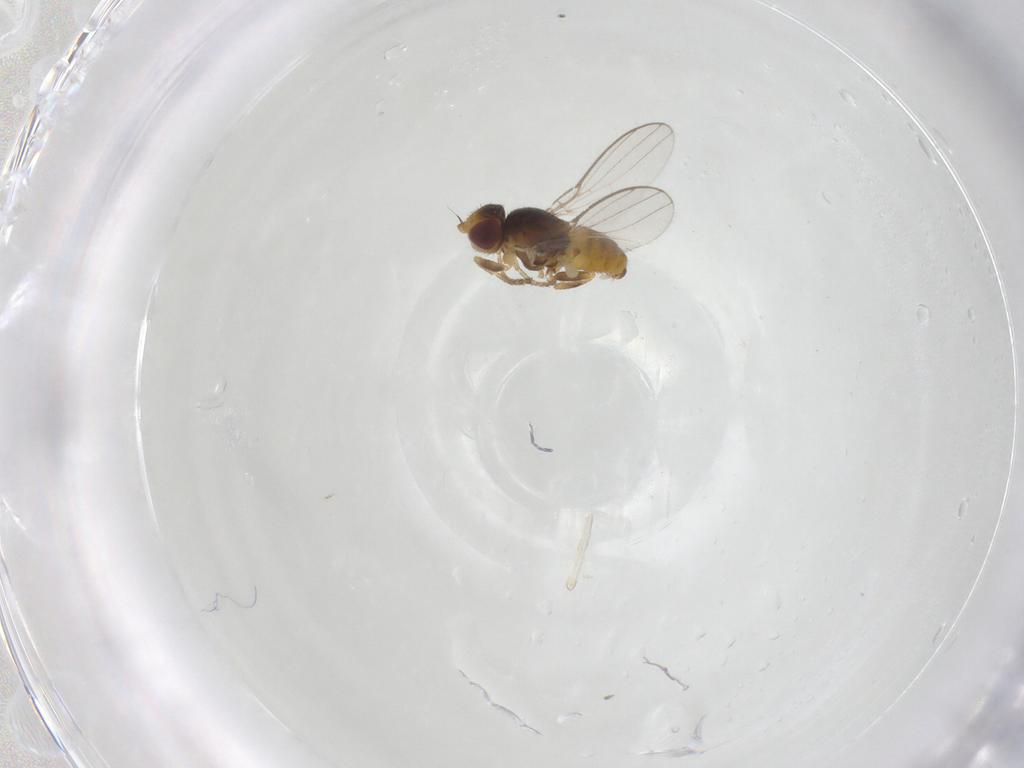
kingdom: Animalia
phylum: Arthropoda
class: Insecta
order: Diptera
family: Chloropidae
